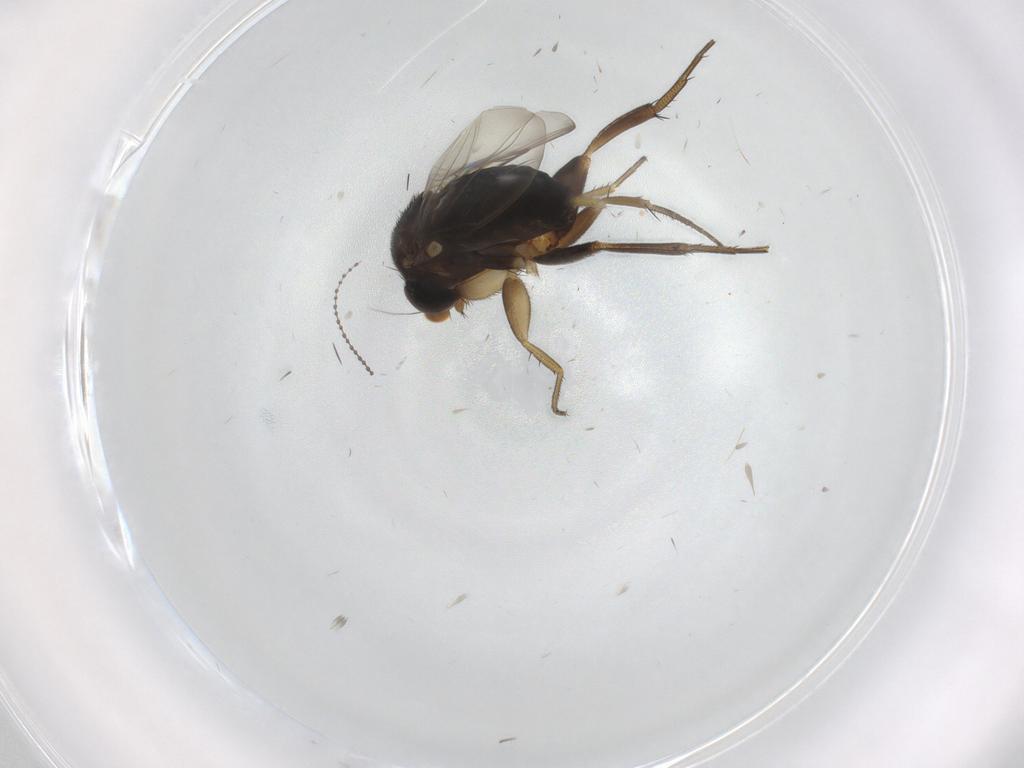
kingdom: Animalia
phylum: Arthropoda
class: Insecta
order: Diptera
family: Phoridae
